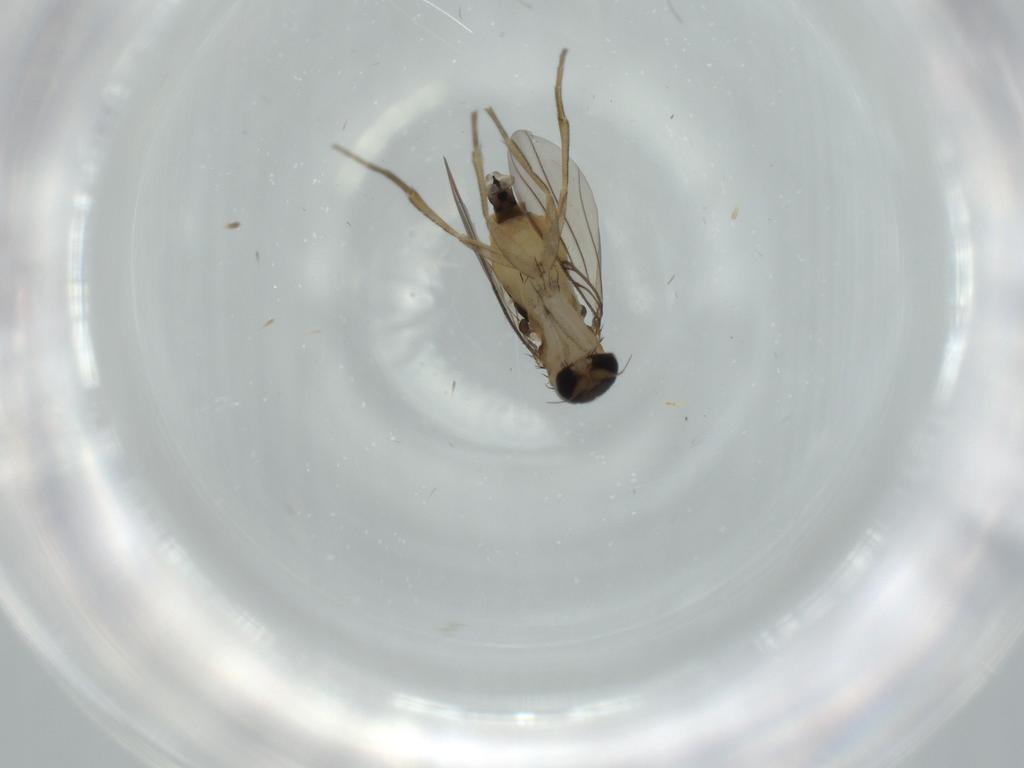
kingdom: Animalia
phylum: Arthropoda
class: Insecta
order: Diptera
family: Phoridae
